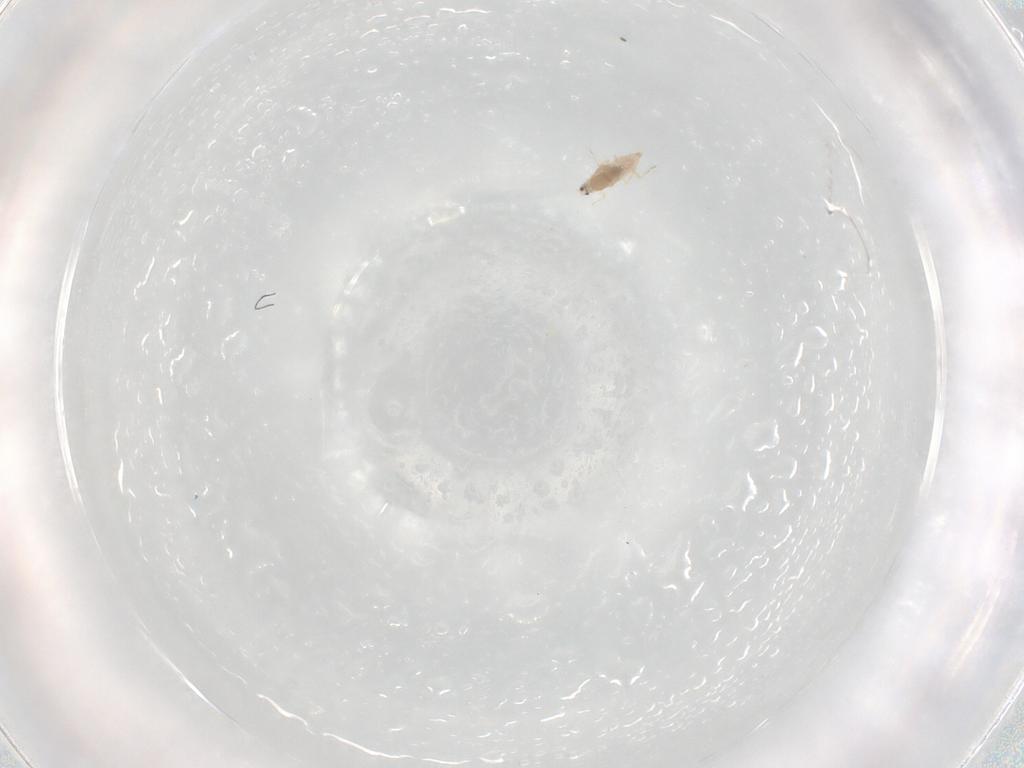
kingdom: Animalia
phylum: Arthropoda
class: Insecta
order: Hemiptera
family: Coccoidea_incertae_sedis
